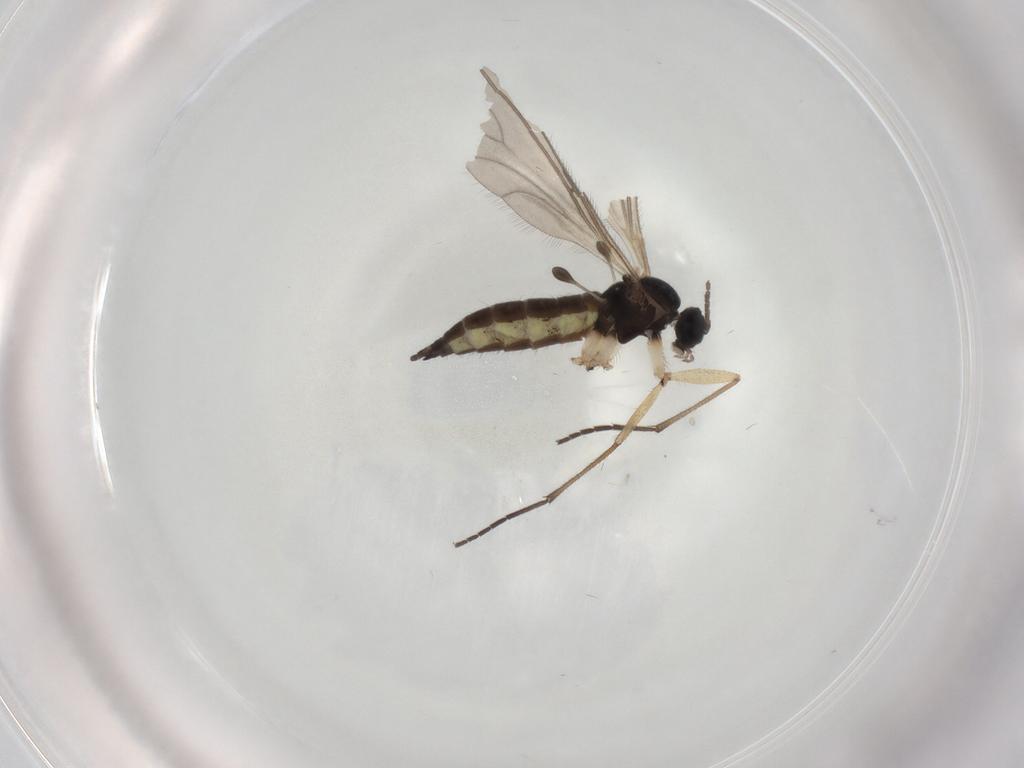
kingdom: Animalia
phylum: Arthropoda
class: Insecta
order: Diptera
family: Sciaridae
